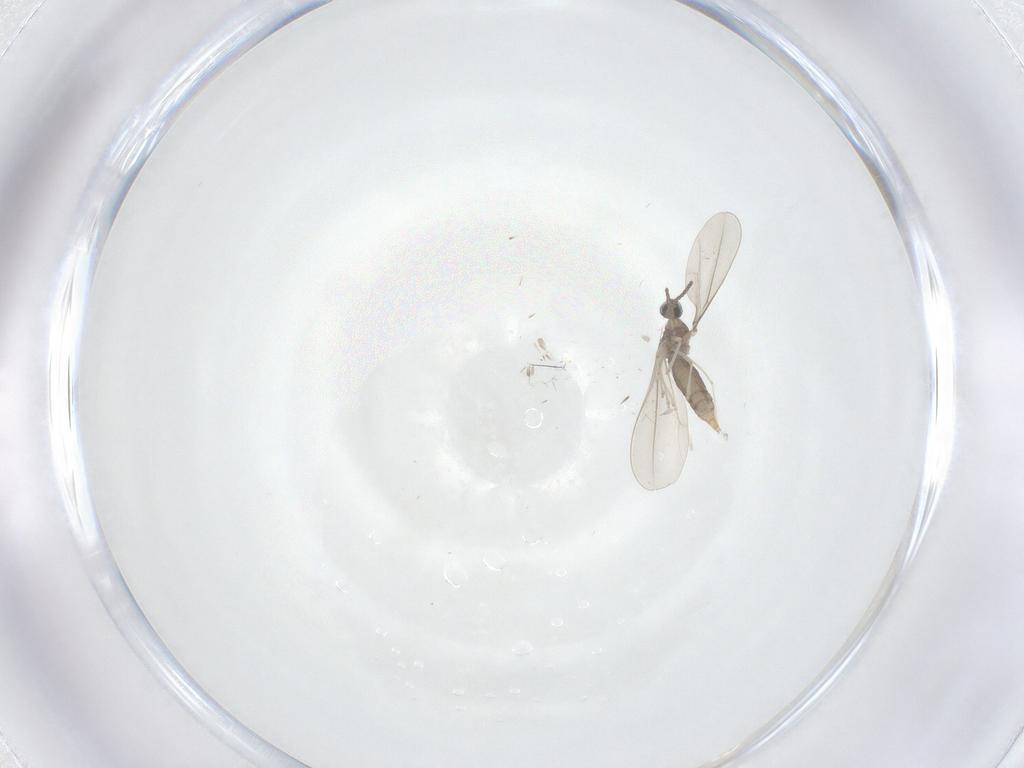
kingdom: Animalia
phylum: Arthropoda
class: Insecta
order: Diptera
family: Cecidomyiidae
